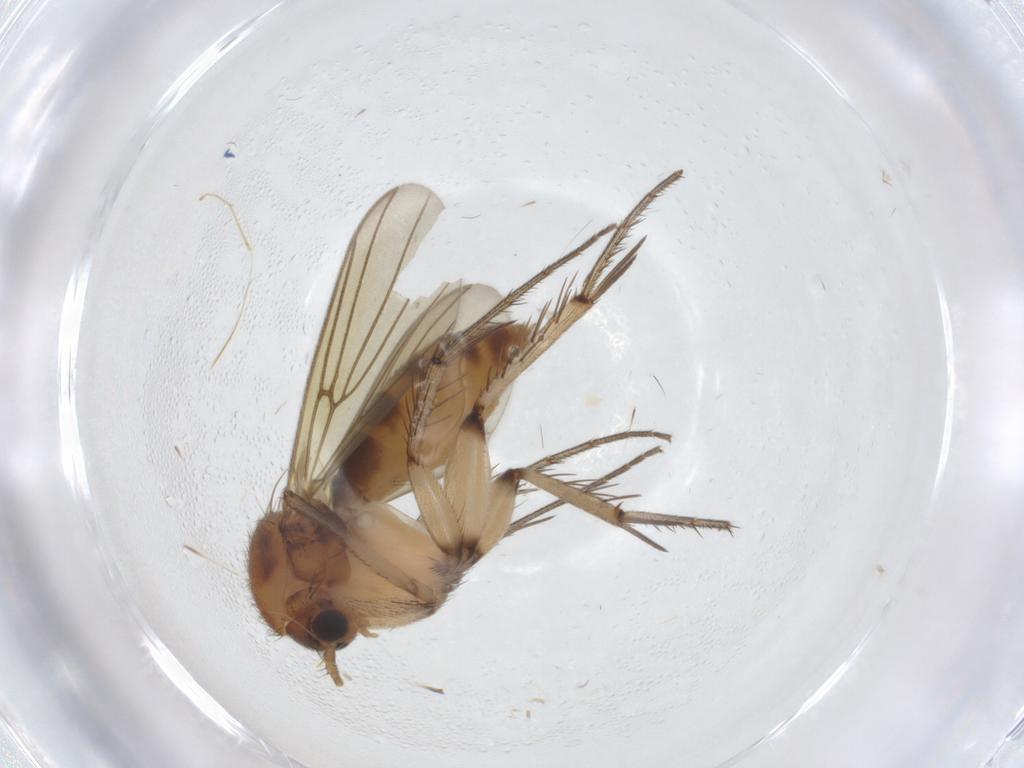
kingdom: Animalia
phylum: Arthropoda
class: Insecta
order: Diptera
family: Mycetophilidae
